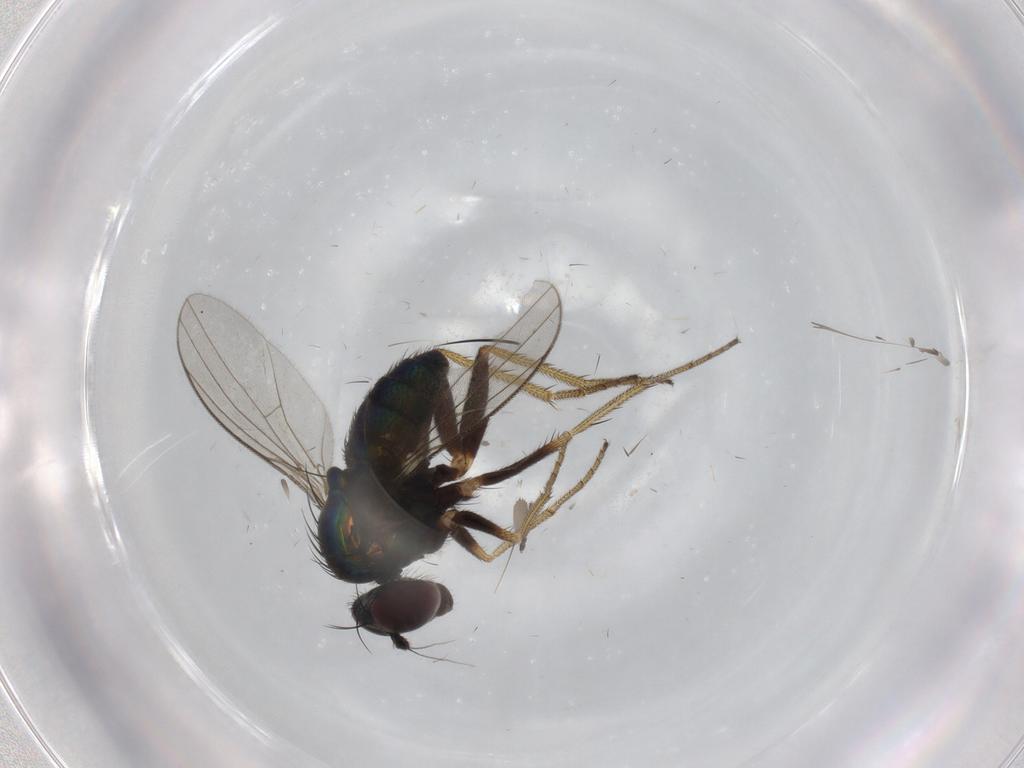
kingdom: Animalia
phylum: Arthropoda
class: Insecta
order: Diptera
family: Sciaridae
